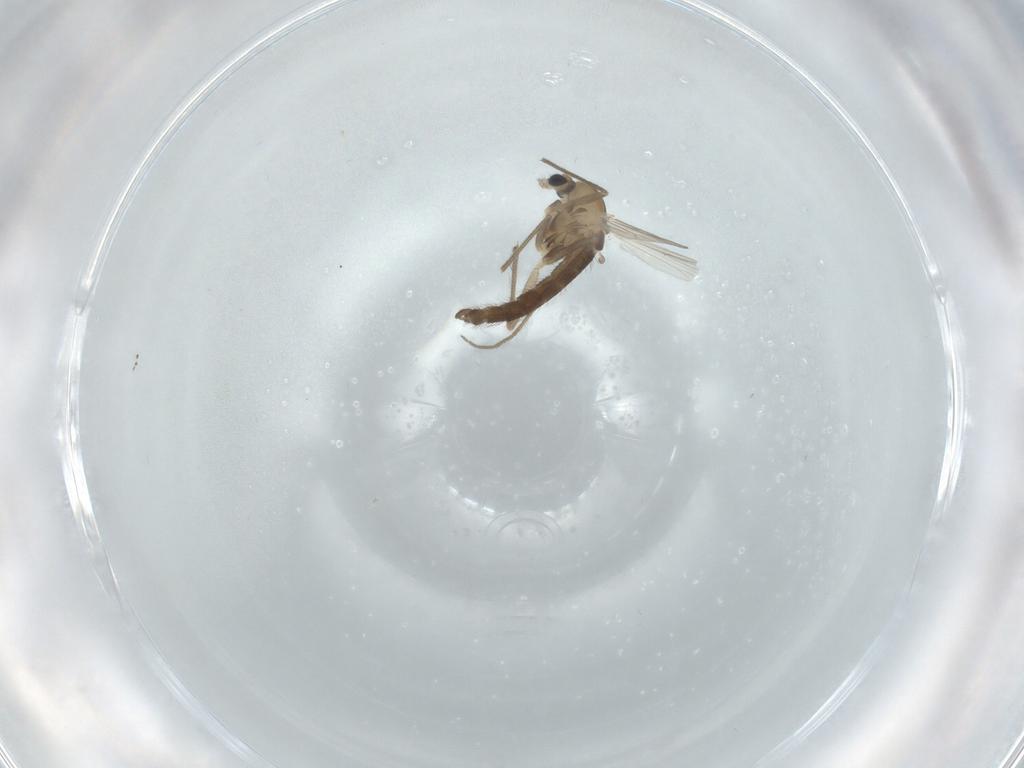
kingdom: Animalia
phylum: Arthropoda
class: Insecta
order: Diptera
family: Chironomidae
